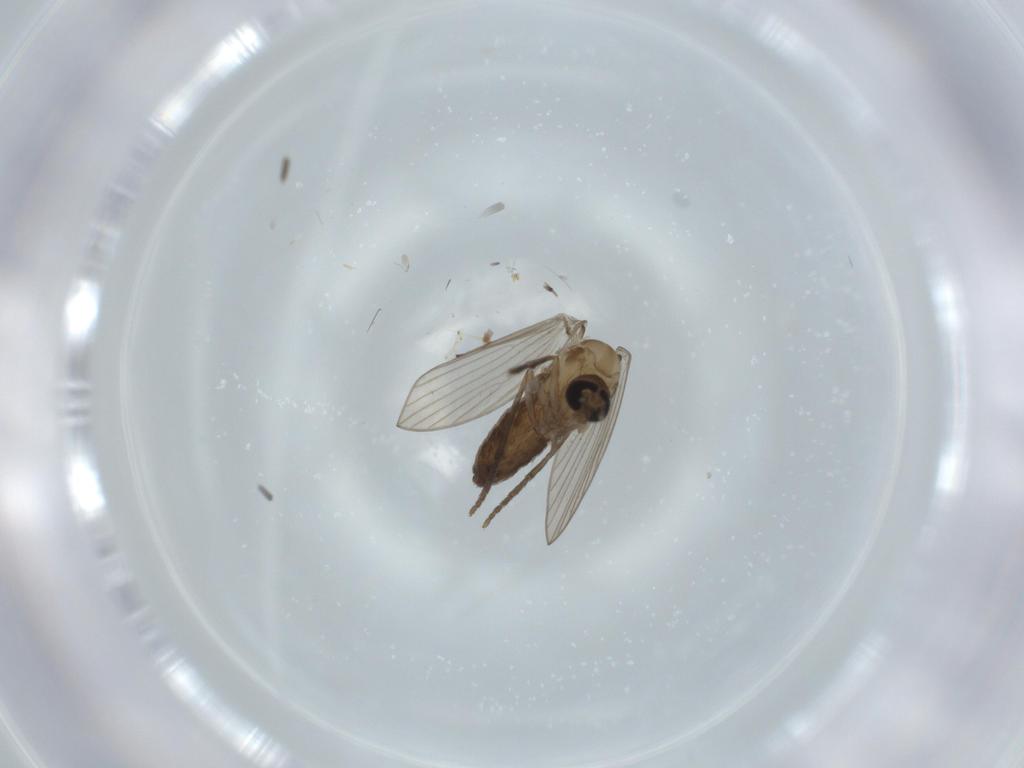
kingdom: Animalia
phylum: Arthropoda
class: Insecta
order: Diptera
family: Psychodidae
